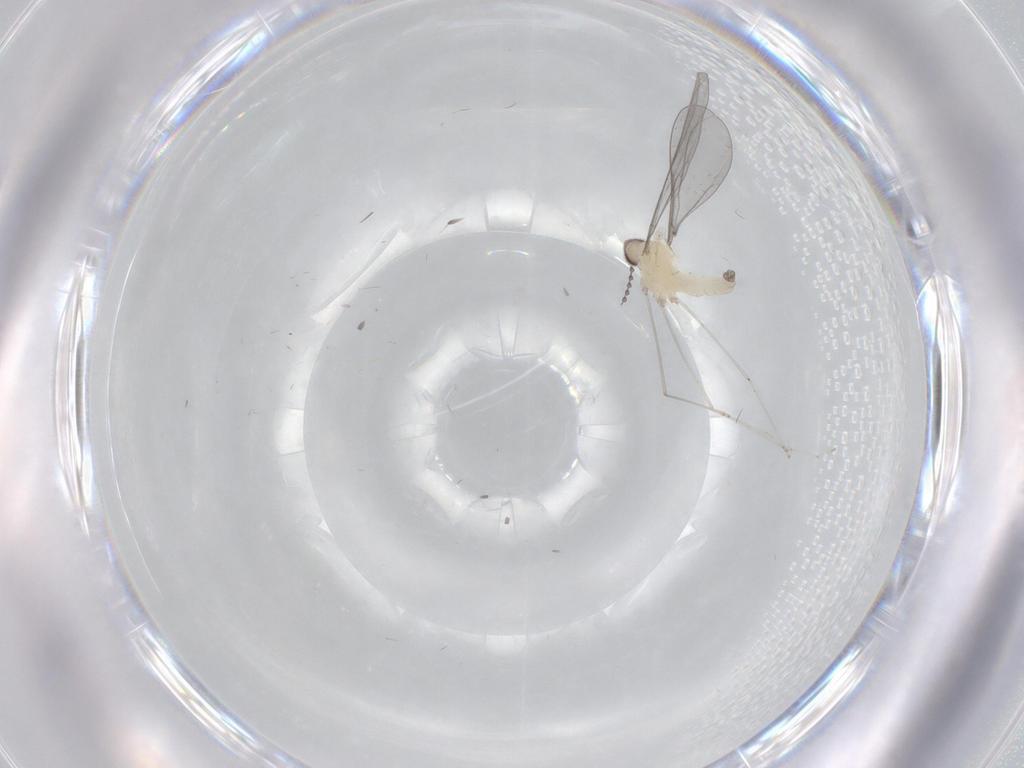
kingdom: Animalia
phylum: Arthropoda
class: Insecta
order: Diptera
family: Cecidomyiidae
